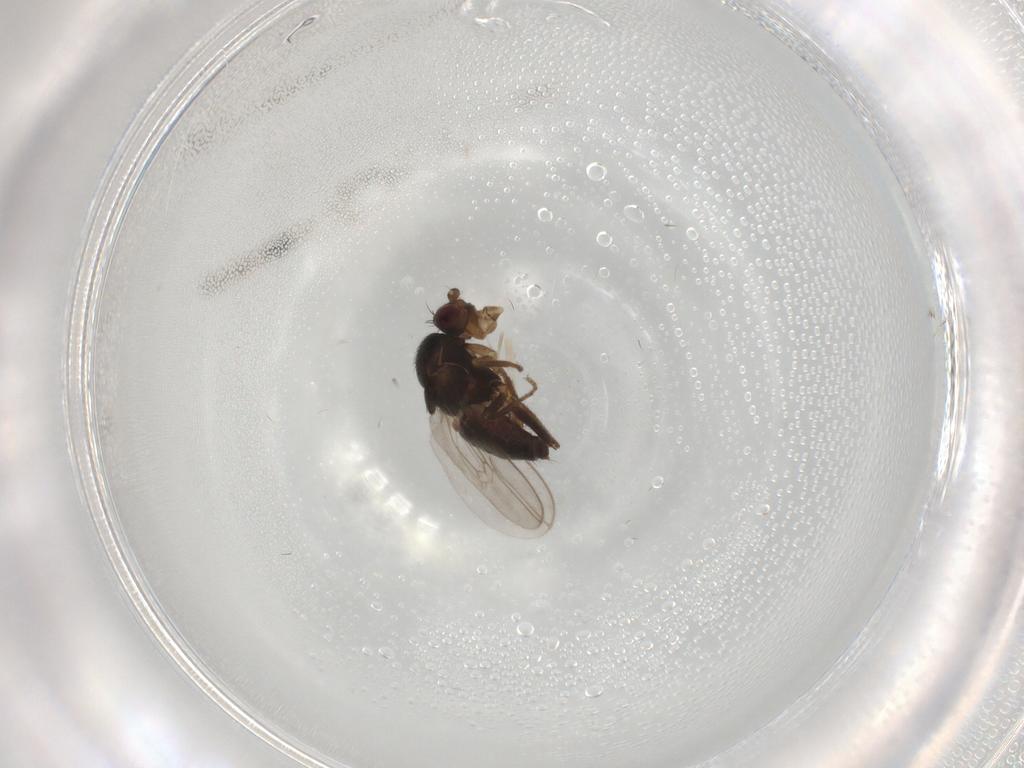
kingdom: Animalia
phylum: Arthropoda
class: Insecta
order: Diptera
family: Sphaeroceridae
